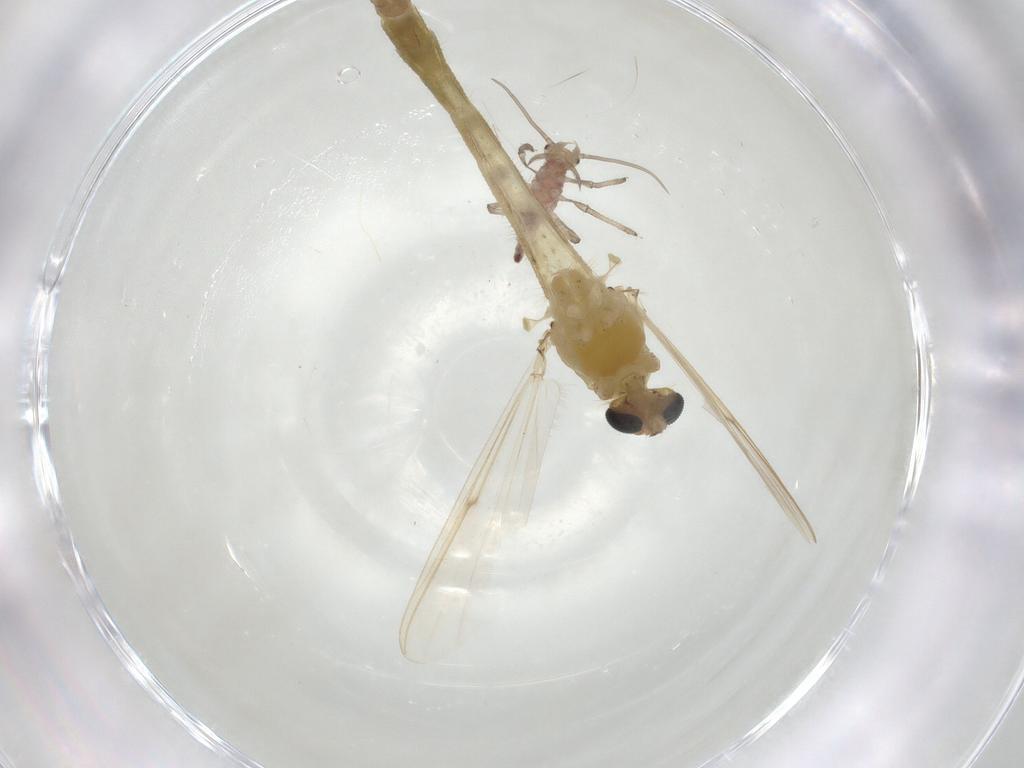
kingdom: Animalia
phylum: Arthropoda
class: Insecta
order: Diptera
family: Chironomidae
